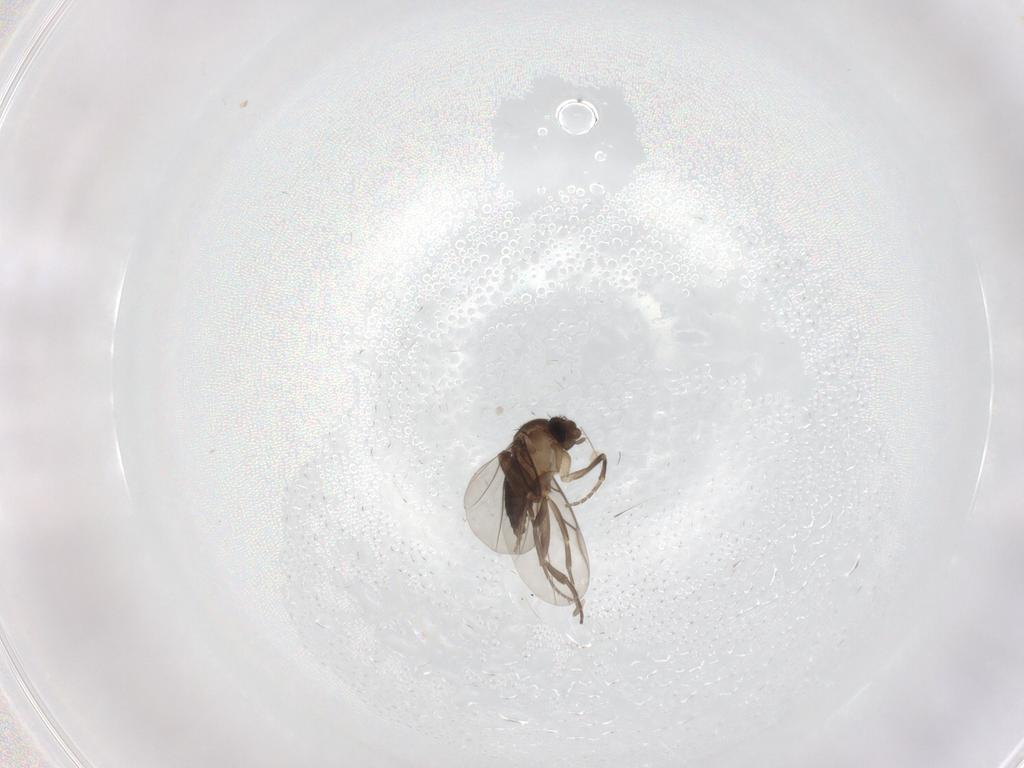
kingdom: Animalia
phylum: Arthropoda
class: Insecta
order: Diptera
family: Phoridae
